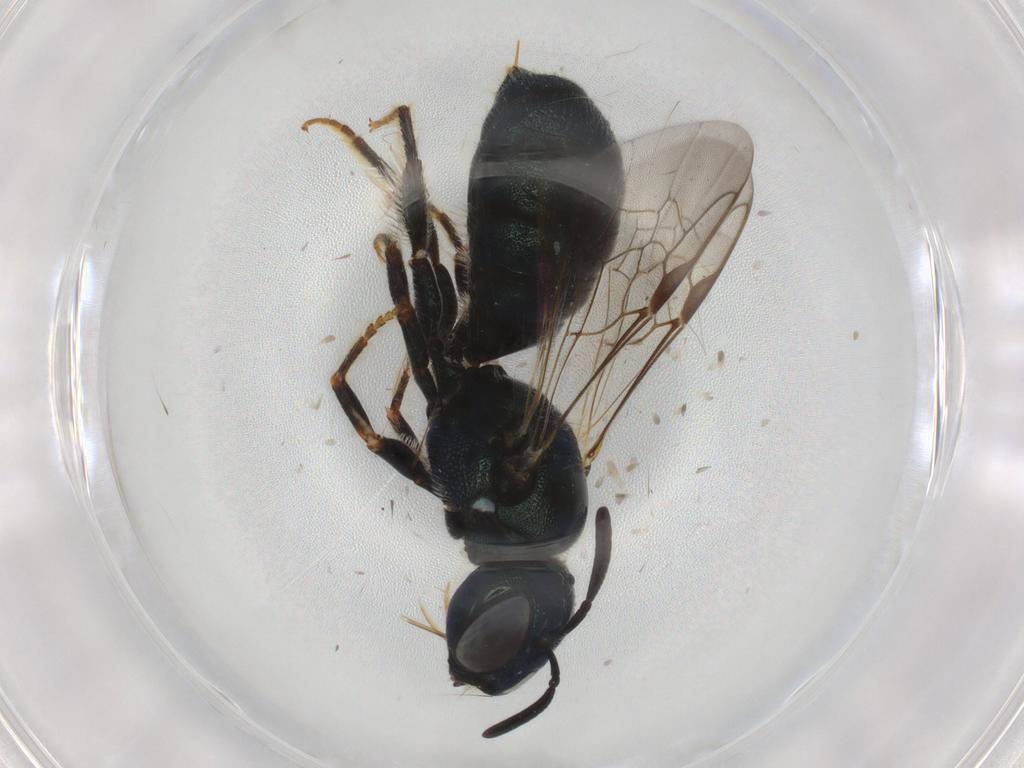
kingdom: Animalia
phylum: Arthropoda
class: Insecta
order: Hymenoptera
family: Apidae
